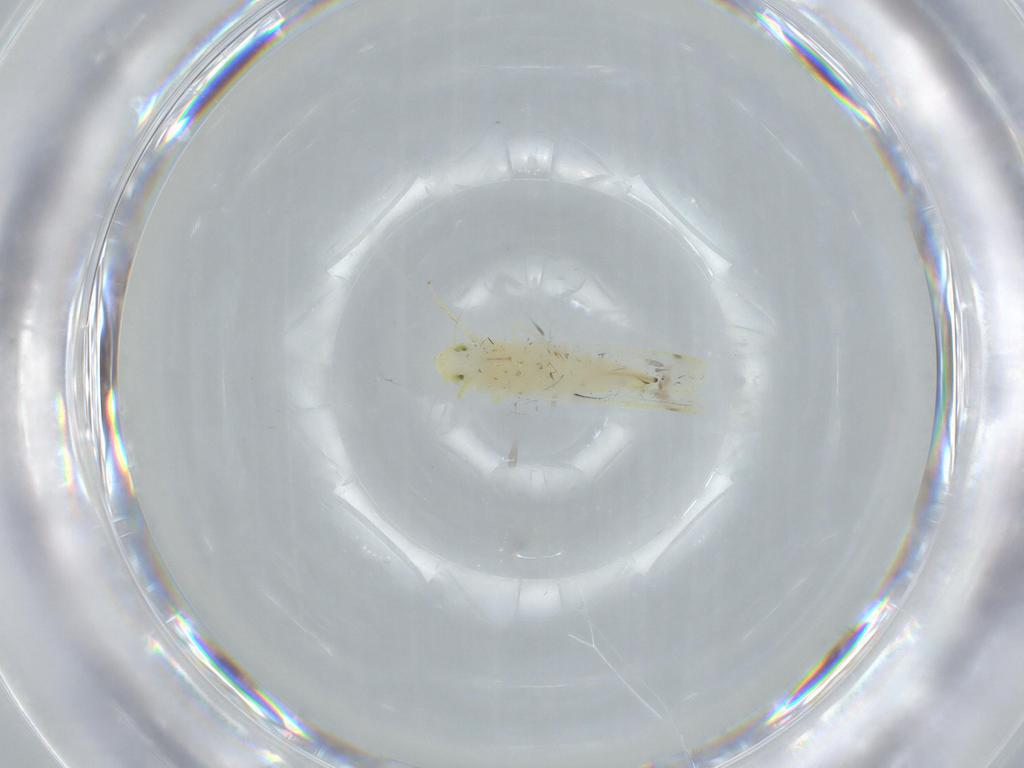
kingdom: Animalia
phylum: Arthropoda
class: Insecta
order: Hemiptera
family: Cicadellidae
